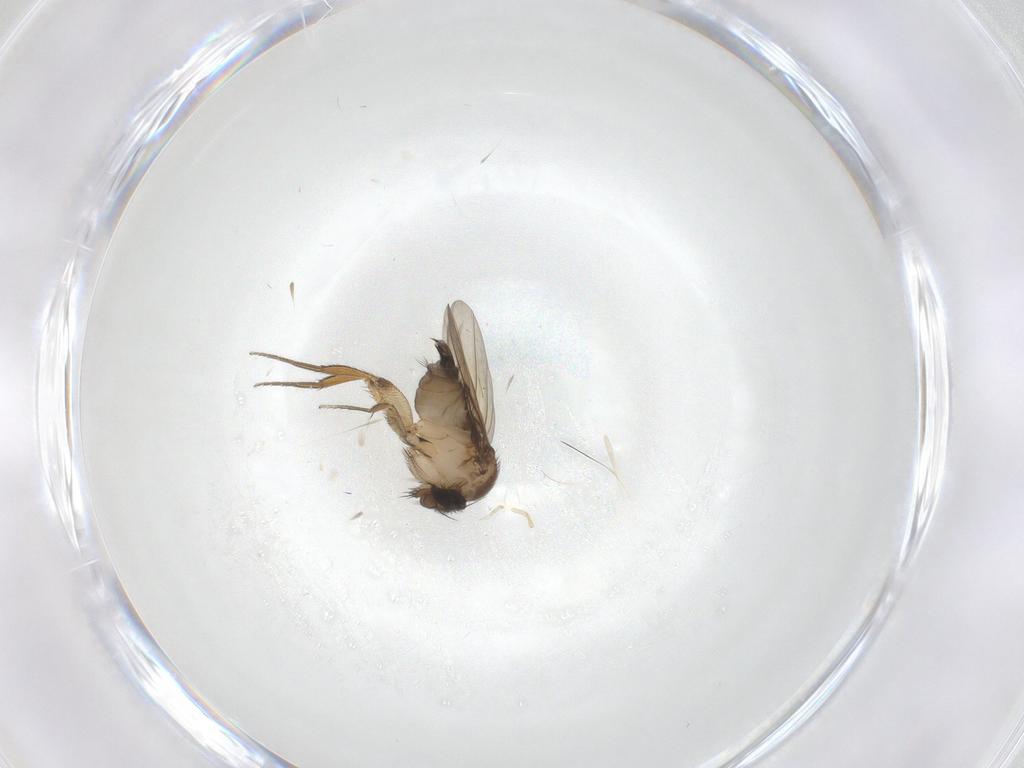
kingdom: Animalia
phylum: Arthropoda
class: Insecta
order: Diptera
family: Phoridae
